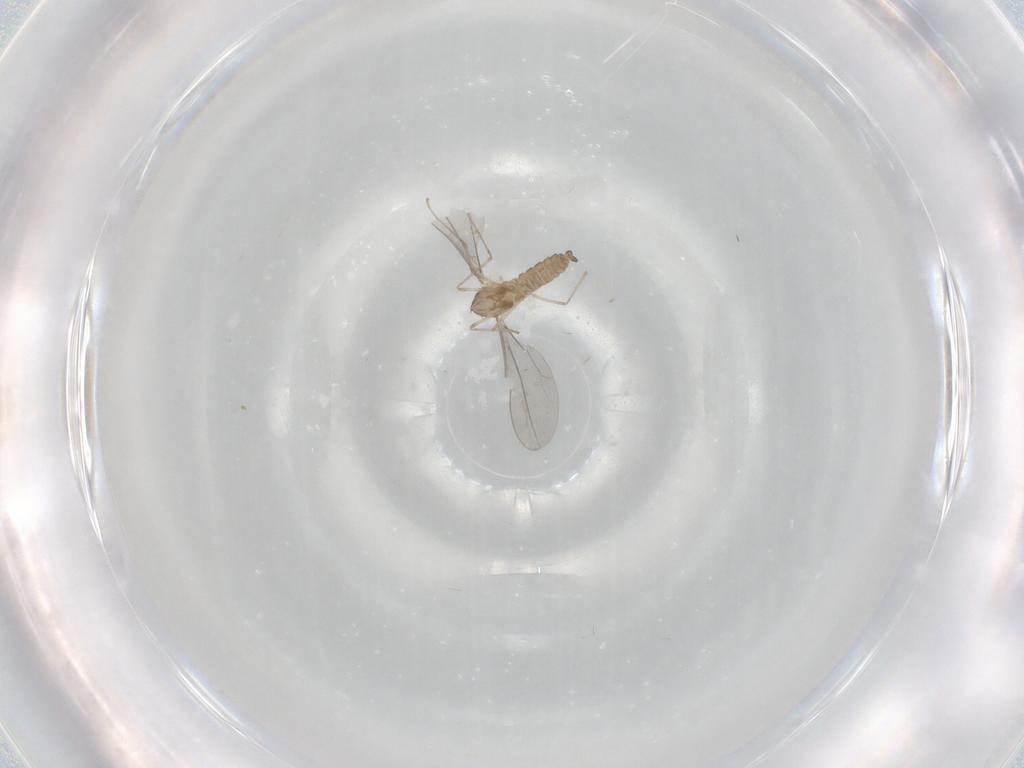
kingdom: Animalia
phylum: Arthropoda
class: Insecta
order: Diptera
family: Cecidomyiidae
